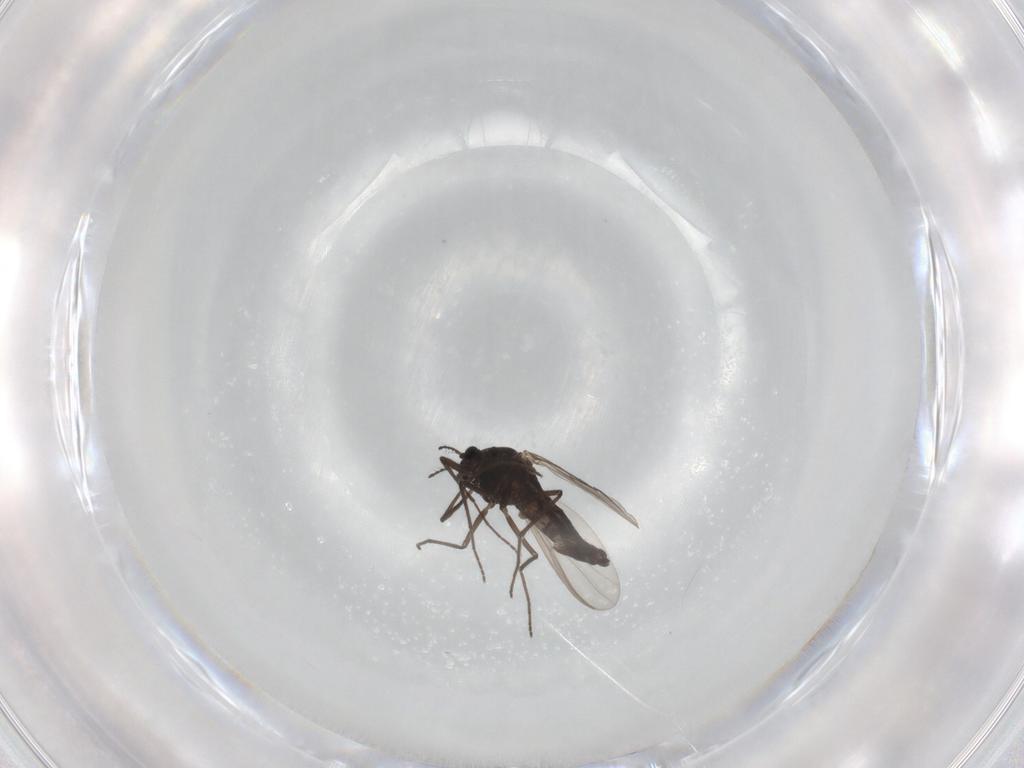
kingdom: Animalia
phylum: Arthropoda
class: Insecta
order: Diptera
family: Chironomidae
